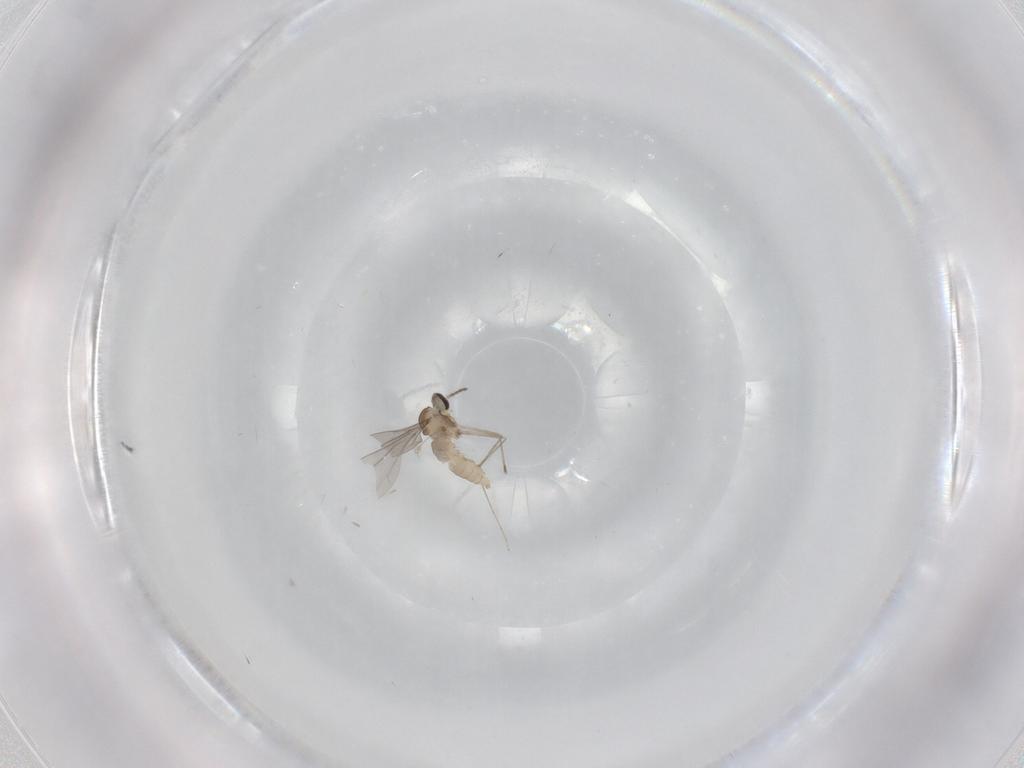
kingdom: Animalia
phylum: Arthropoda
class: Insecta
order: Diptera
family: Cecidomyiidae
